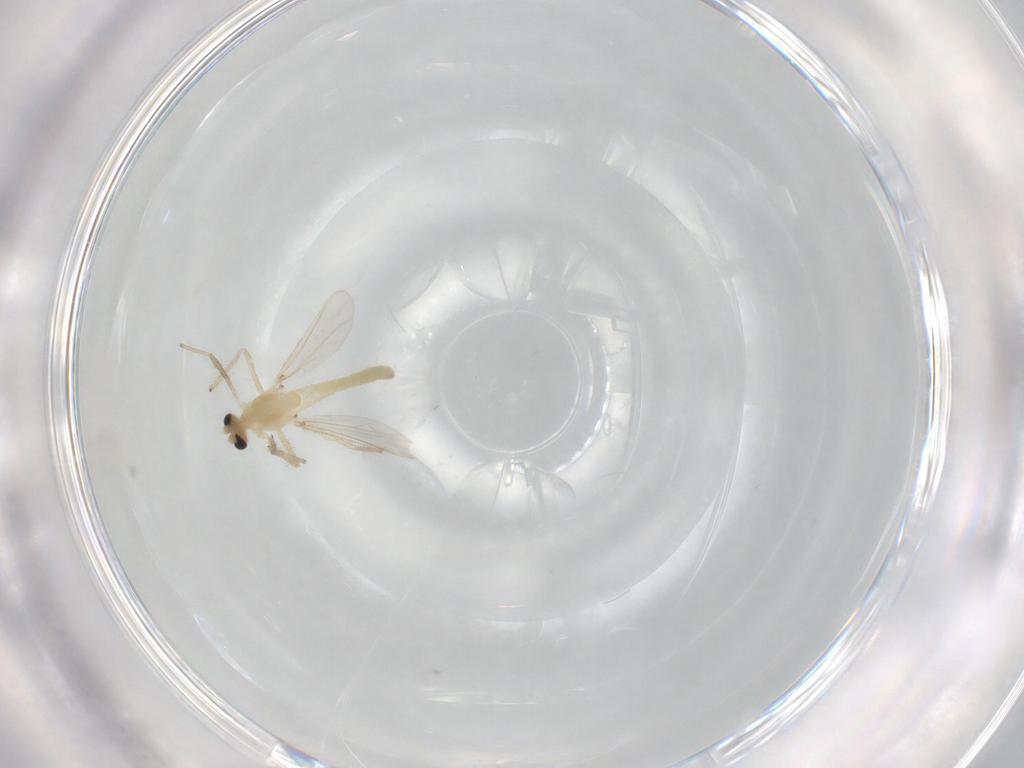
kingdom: Animalia
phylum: Arthropoda
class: Insecta
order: Diptera
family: Chironomidae
